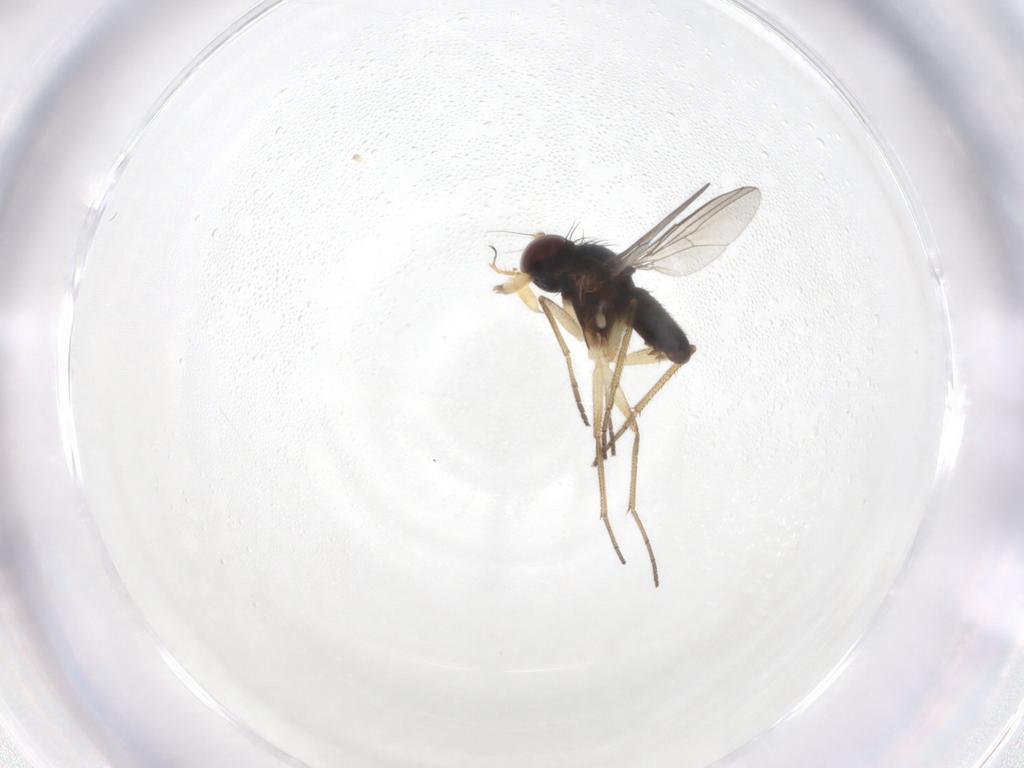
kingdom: Animalia
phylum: Arthropoda
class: Insecta
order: Diptera
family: Dolichopodidae
